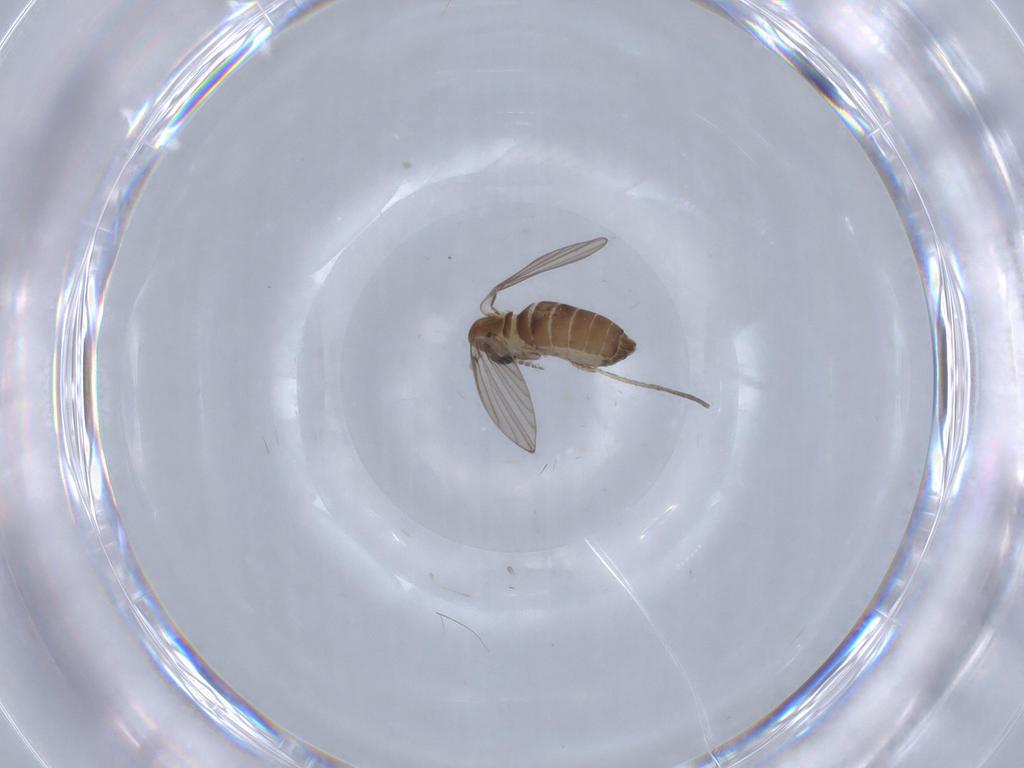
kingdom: Animalia
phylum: Arthropoda
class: Insecta
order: Diptera
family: Psychodidae
